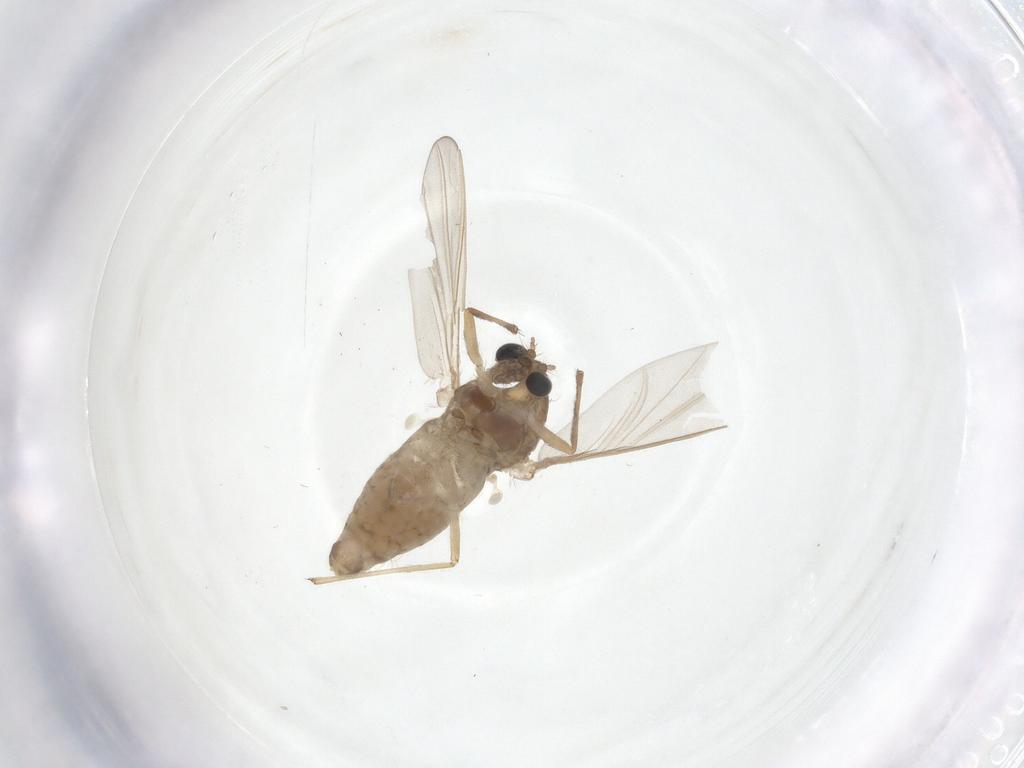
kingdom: Animalia
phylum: Arthropoda
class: Insecta
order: Diptera
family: Chironomidae
